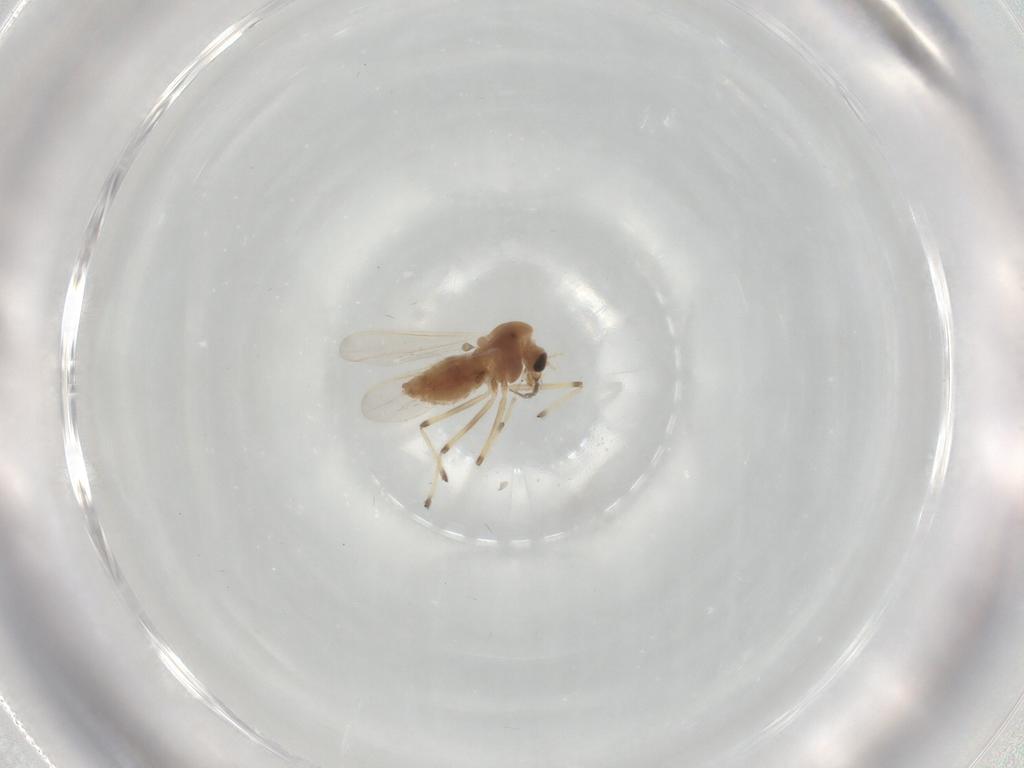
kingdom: Animalia
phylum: Arthropoda
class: Insecta
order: Diptera
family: Chironomidae
